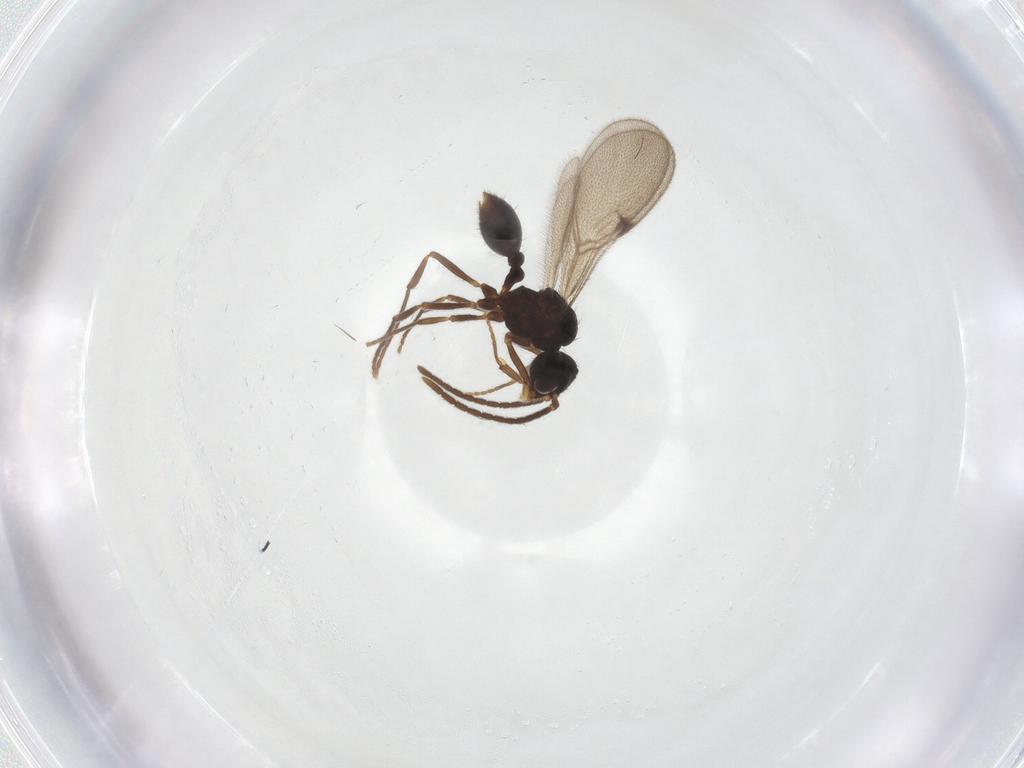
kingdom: Animalia
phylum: Arthropoda
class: Insecta
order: Hymenoptera
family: Formicidae
